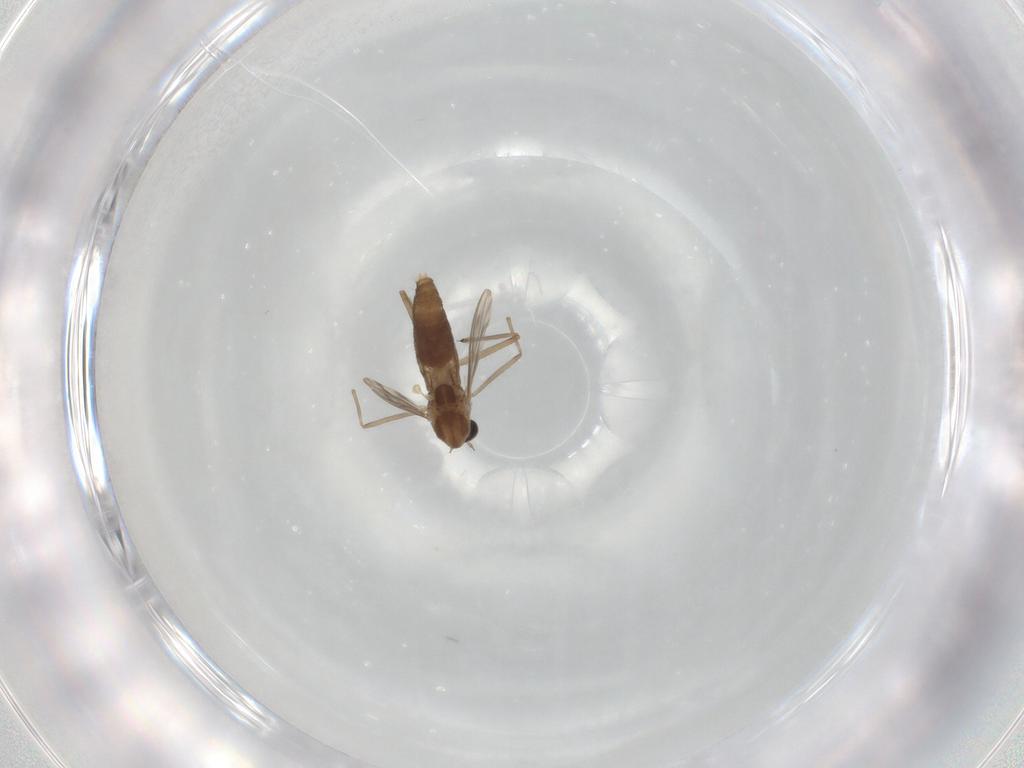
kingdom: Animalia
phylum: Arthropoda
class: Insecta
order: Diptera
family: Chironomidae
